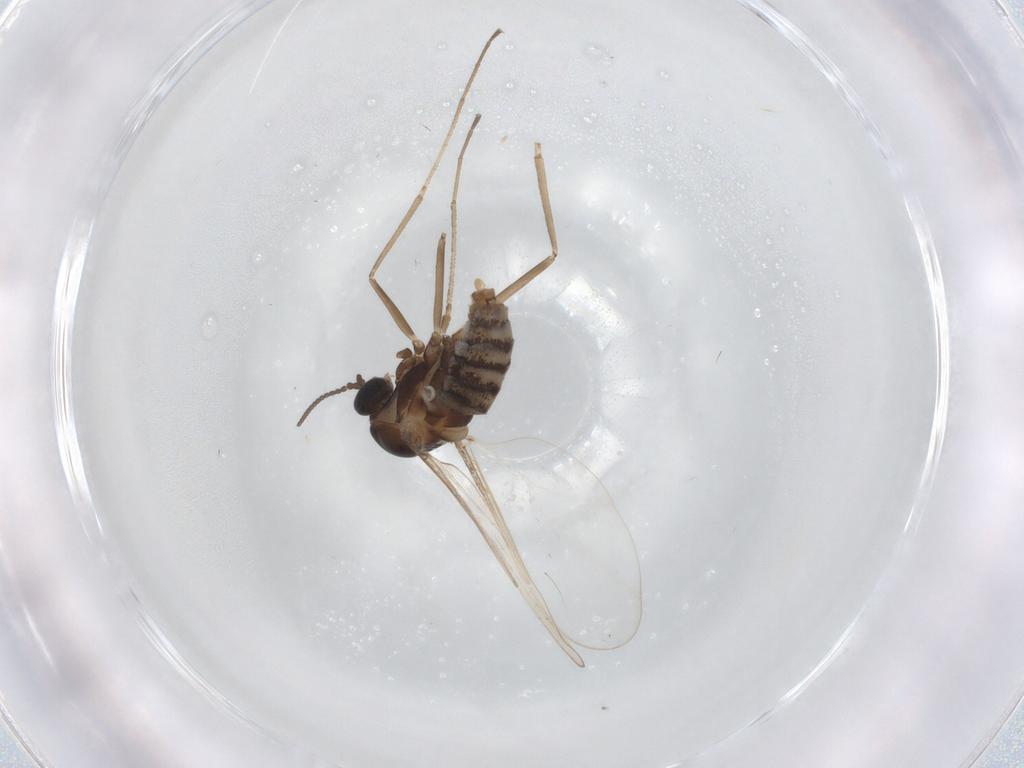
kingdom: Animalia
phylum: Arthropoda
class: Insecta
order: Diptera
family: Cecidomyiidae
